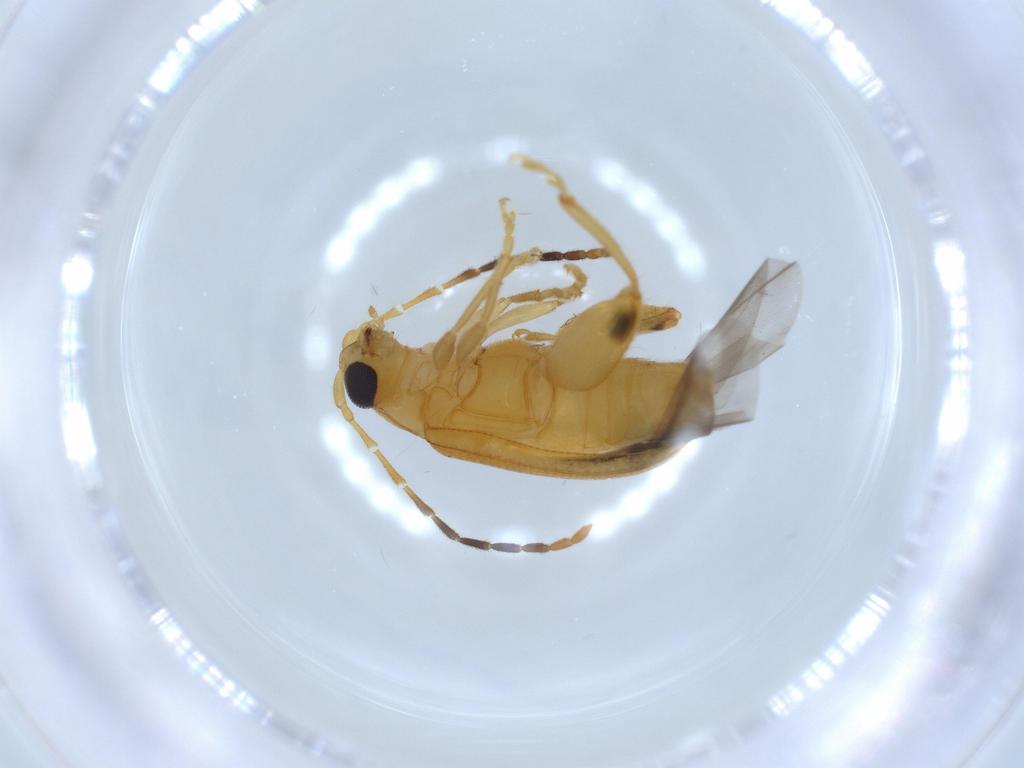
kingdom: Animalia
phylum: Arthropoda
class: Insecta
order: Coleoptera
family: Chrysomelidae
